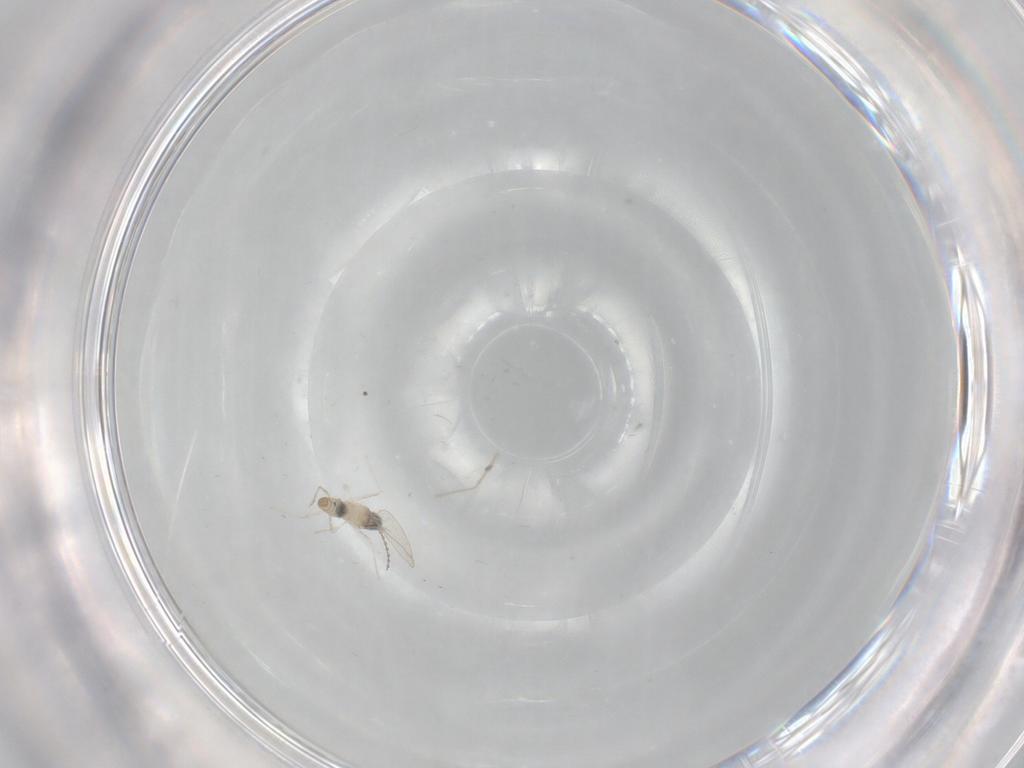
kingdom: Animalia
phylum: Arthropoda
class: Insecta
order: Diptera
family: Cecidomyiidae
